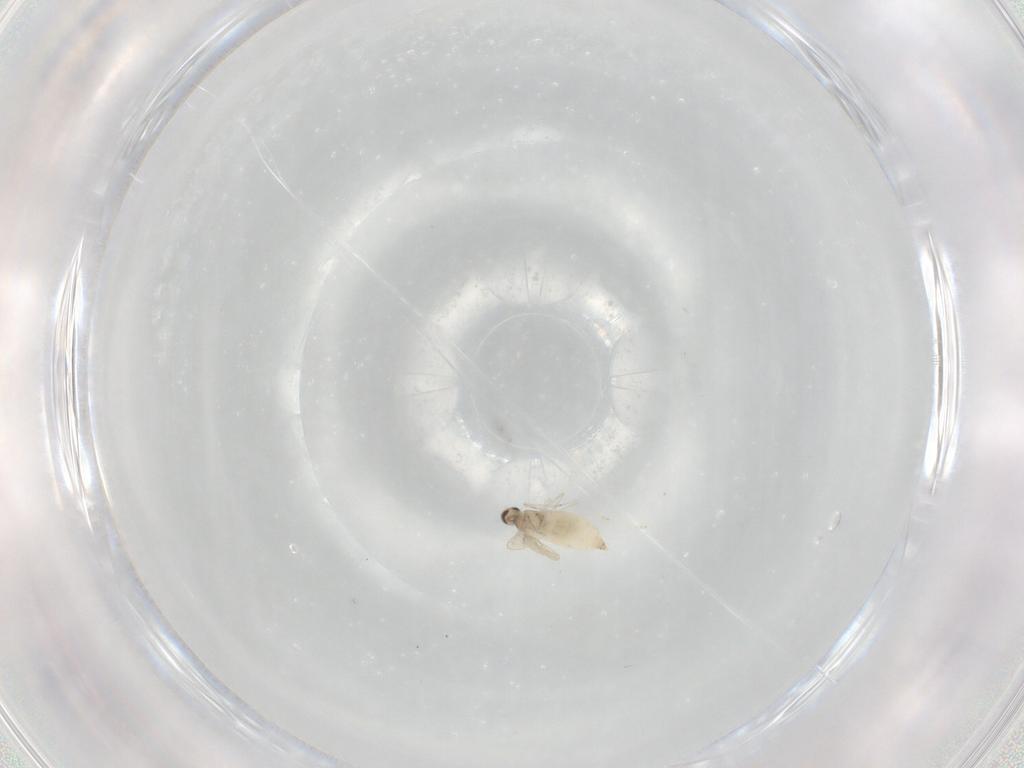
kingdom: Animalia
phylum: Arthropoda
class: Insecta
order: Diptera
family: Cecidomyiidae
